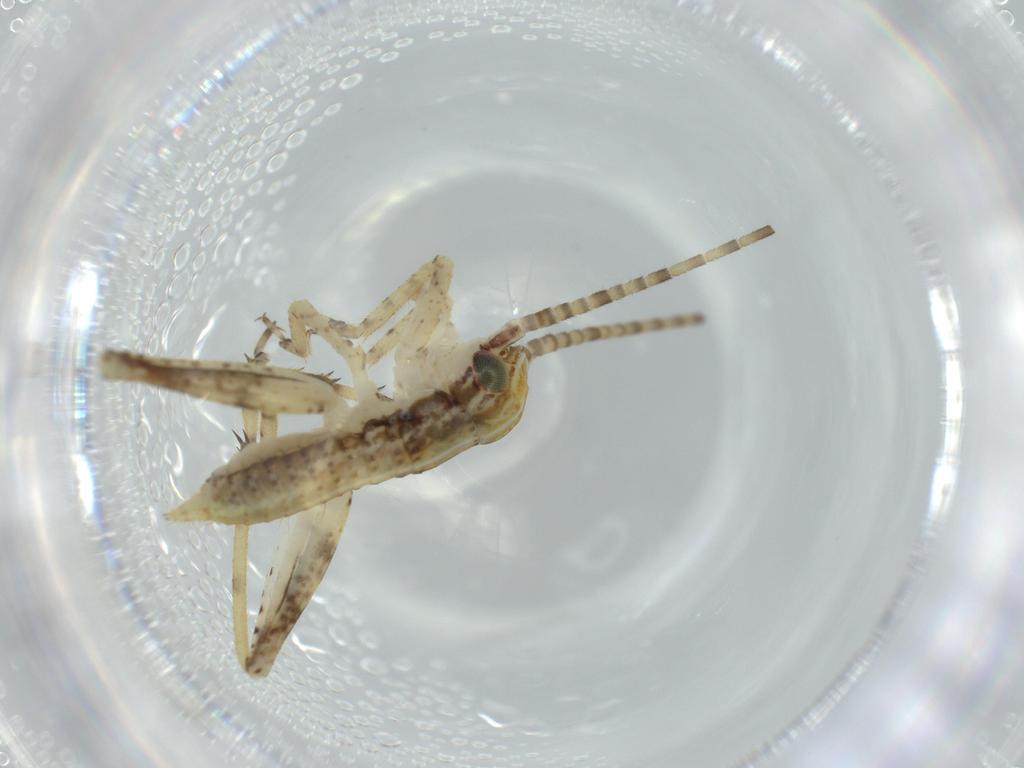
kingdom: Animalia
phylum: Arthropoda
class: Insecta
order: Orthoptera
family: Gryllidae
